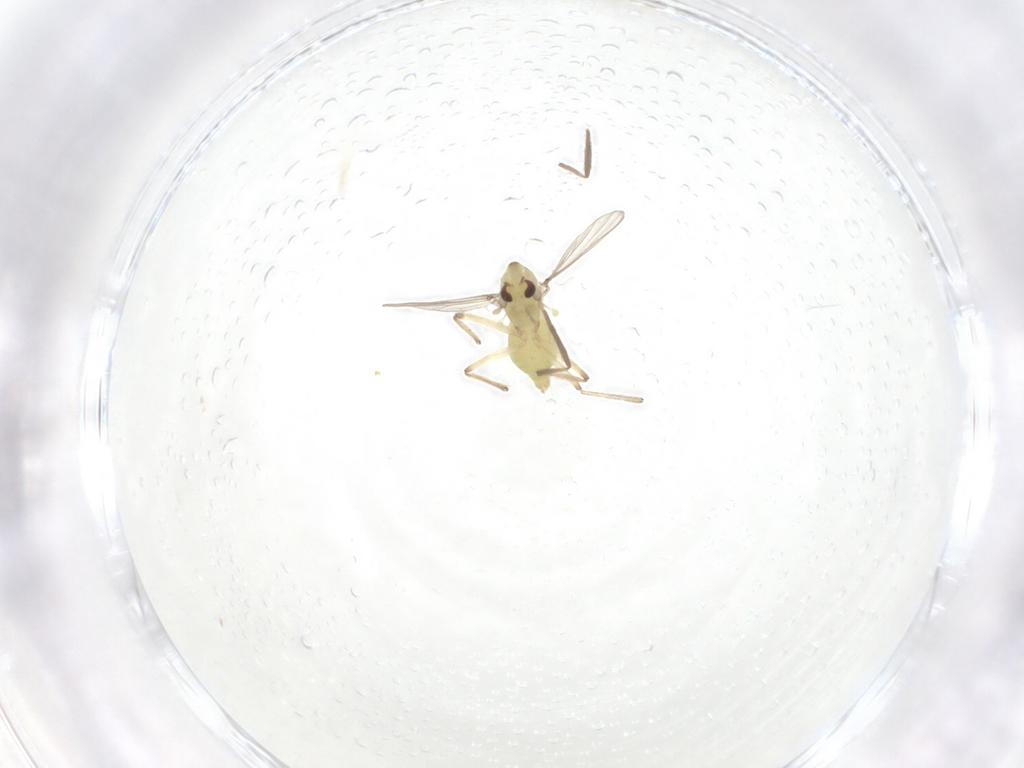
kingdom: Animalia
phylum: Arthropoda
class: Insecta
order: Diptera
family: Chironomidae
